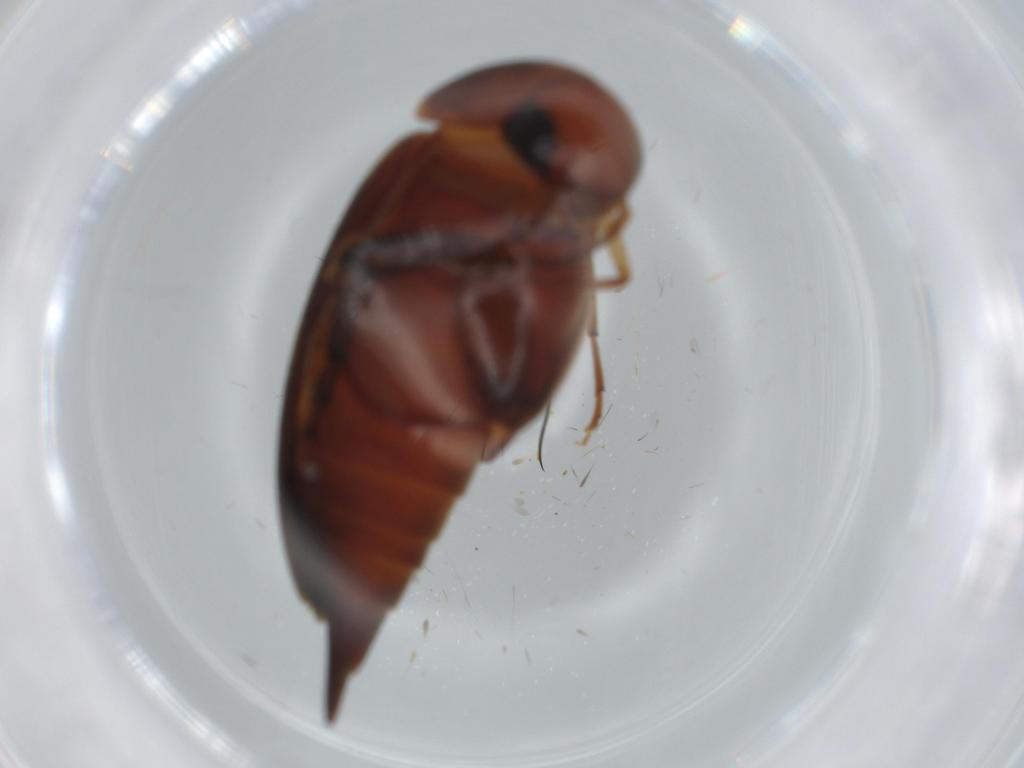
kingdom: Animalia
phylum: Arthropoda
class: Insecta
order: Coleoptera
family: Mordellidae
